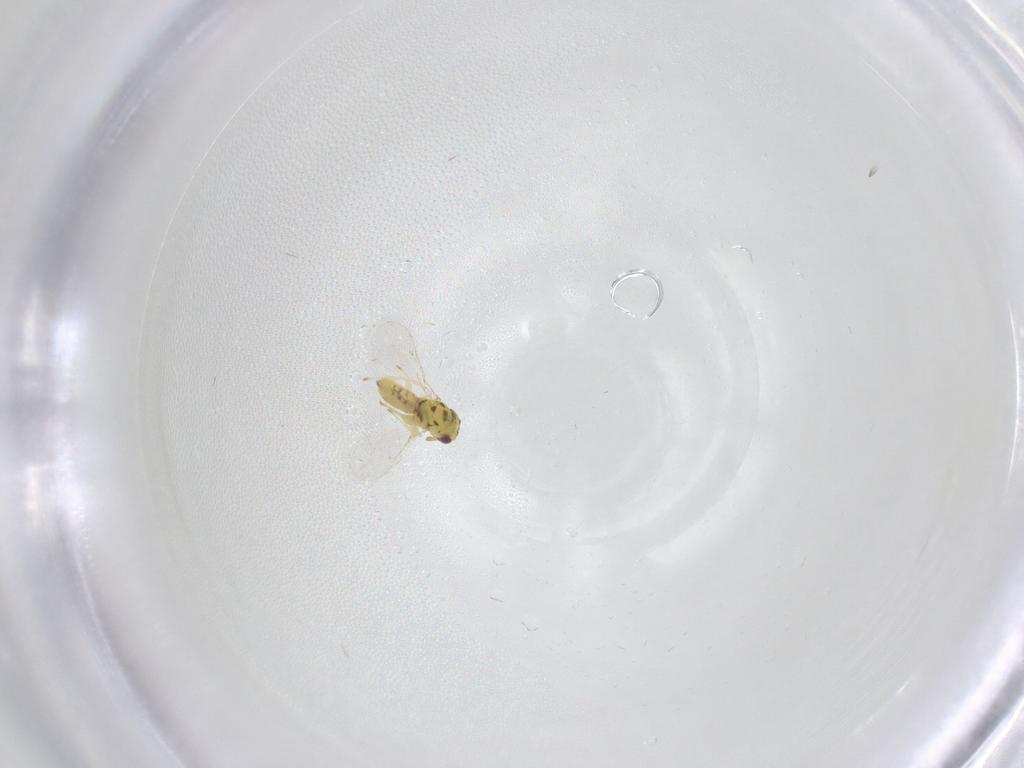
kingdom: Animalia
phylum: Arthropoda
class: Insecta
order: Hymenoptera
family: Eulophidae
